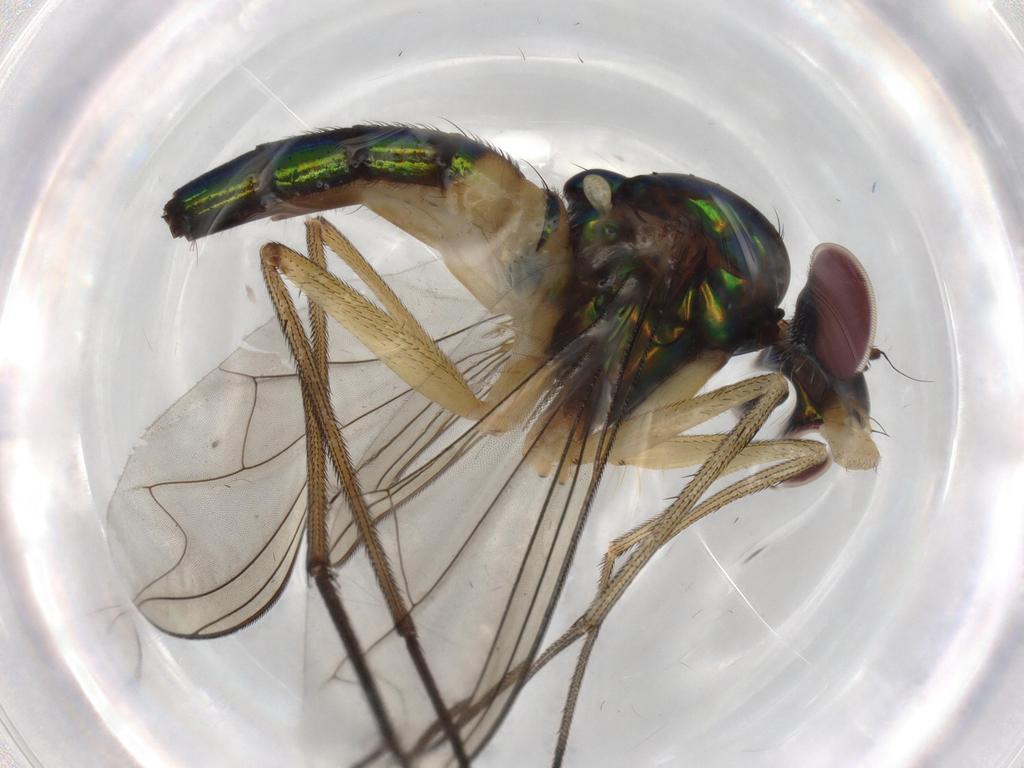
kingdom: Animalia
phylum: Arthropoda
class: Insecta
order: Diptera
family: Dolichopodidae
